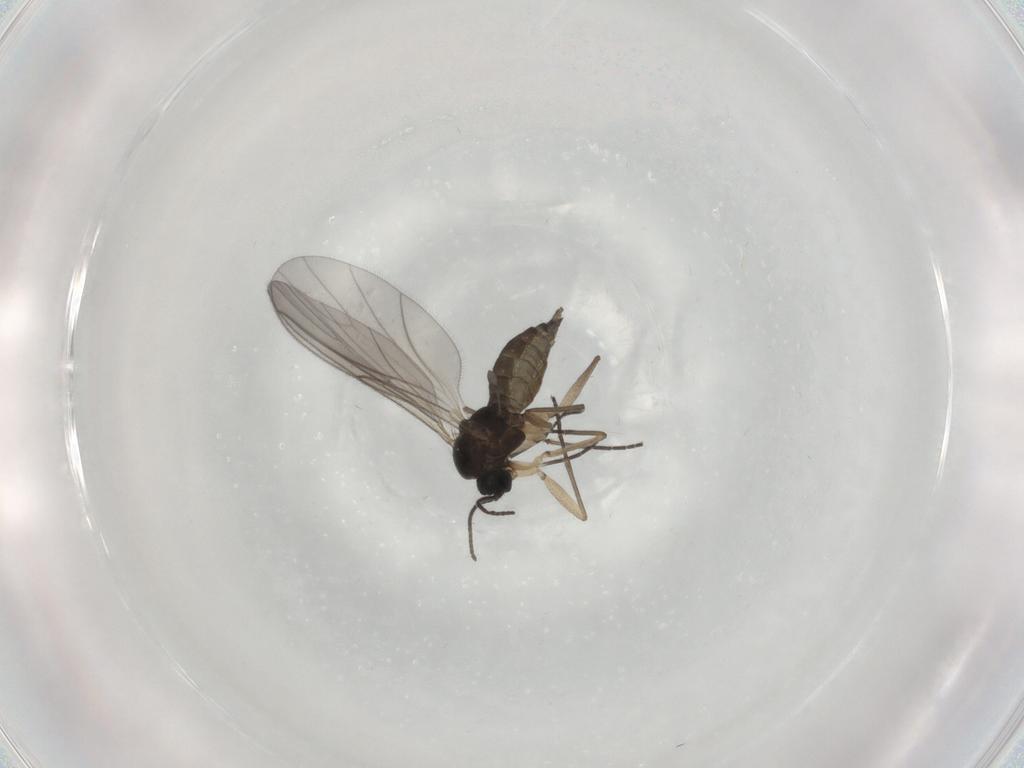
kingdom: Animalia
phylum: Arthropoda
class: Insecta
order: Diptera
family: Sciaridae
